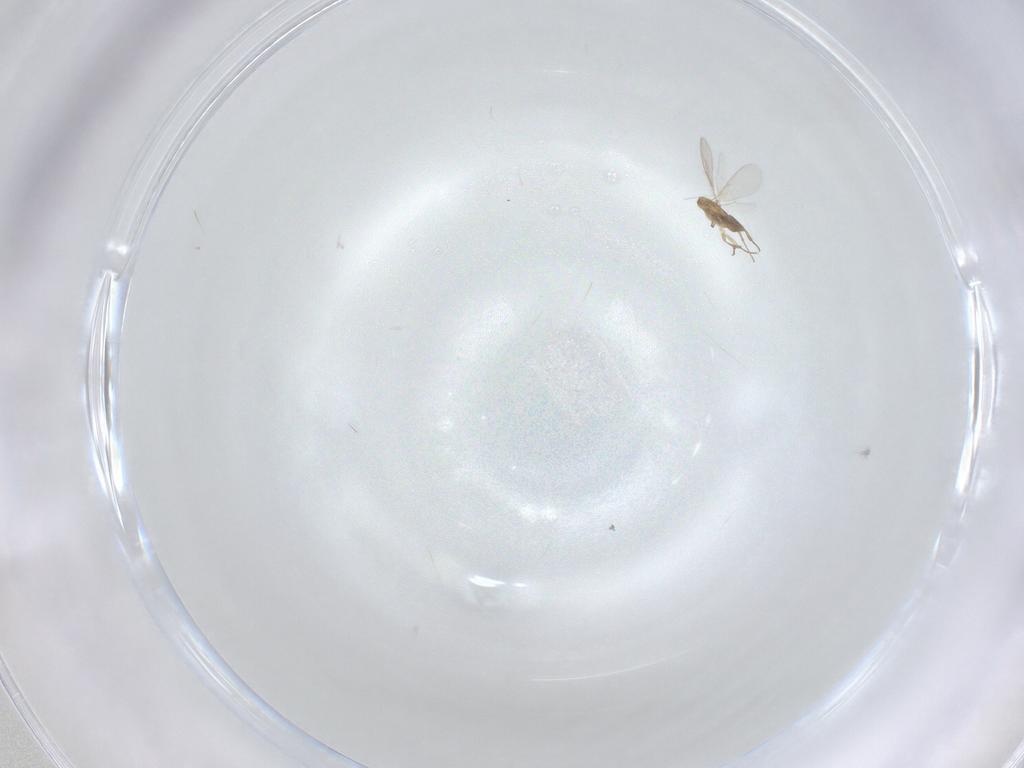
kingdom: Animalia
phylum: Arthropoda
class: Insecta
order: Hymenoptera
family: Aphelinidae
